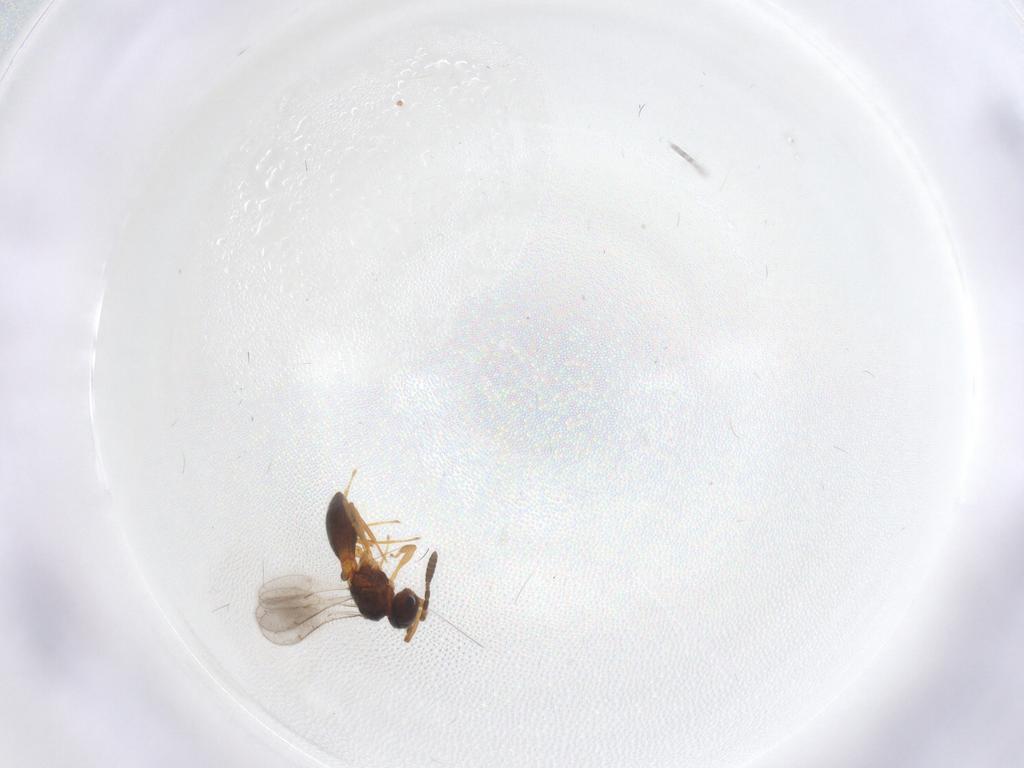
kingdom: Animalia
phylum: Arthropoda
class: Insecta
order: Hymenoptera
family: Scelionidae
